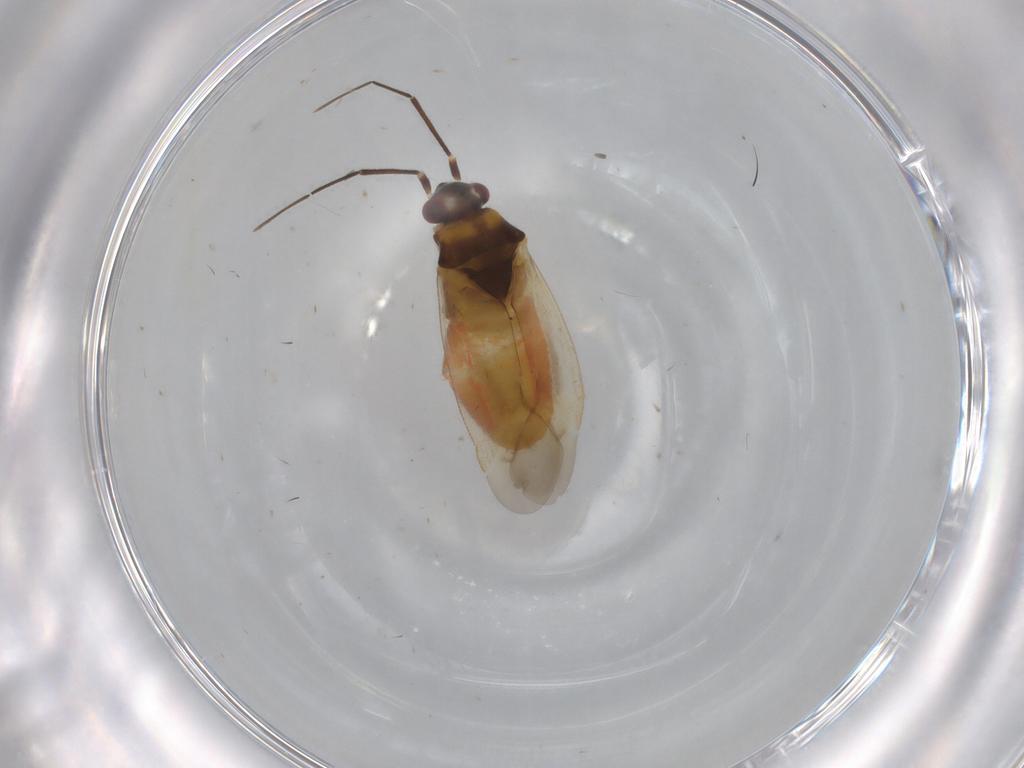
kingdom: Animalia
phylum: Arthropoda
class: Insecta
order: Hemiptera
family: Miridae
